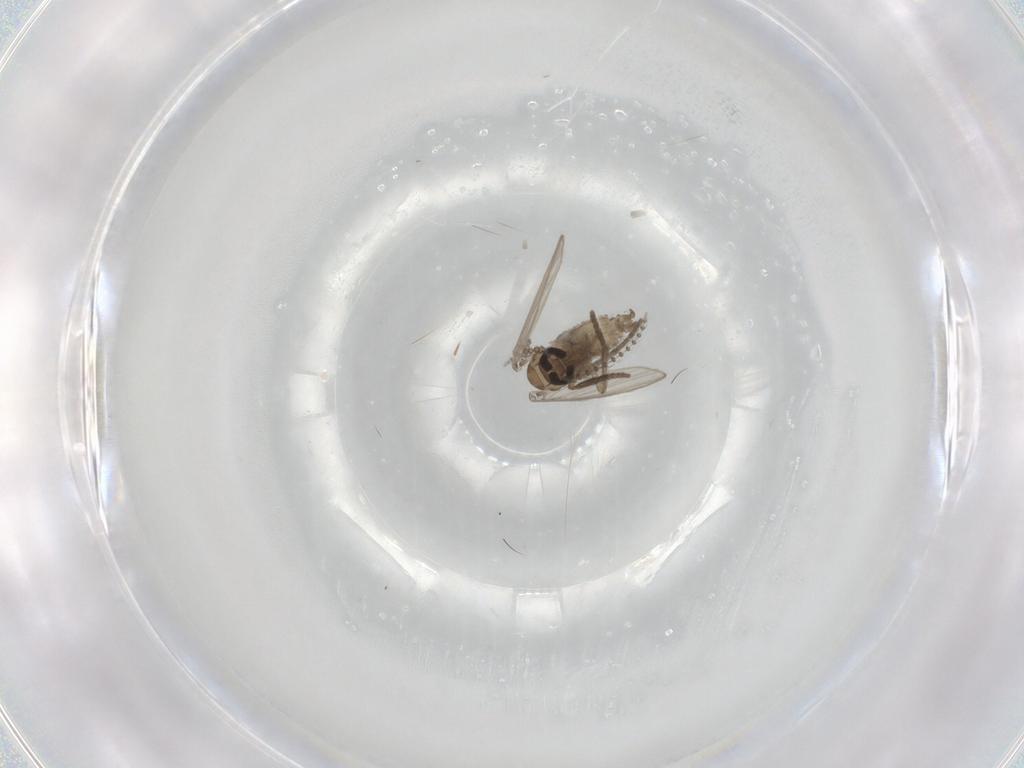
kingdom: Animalia
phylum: Arthropoda
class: Insecta
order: Diptera
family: Psychodidae
